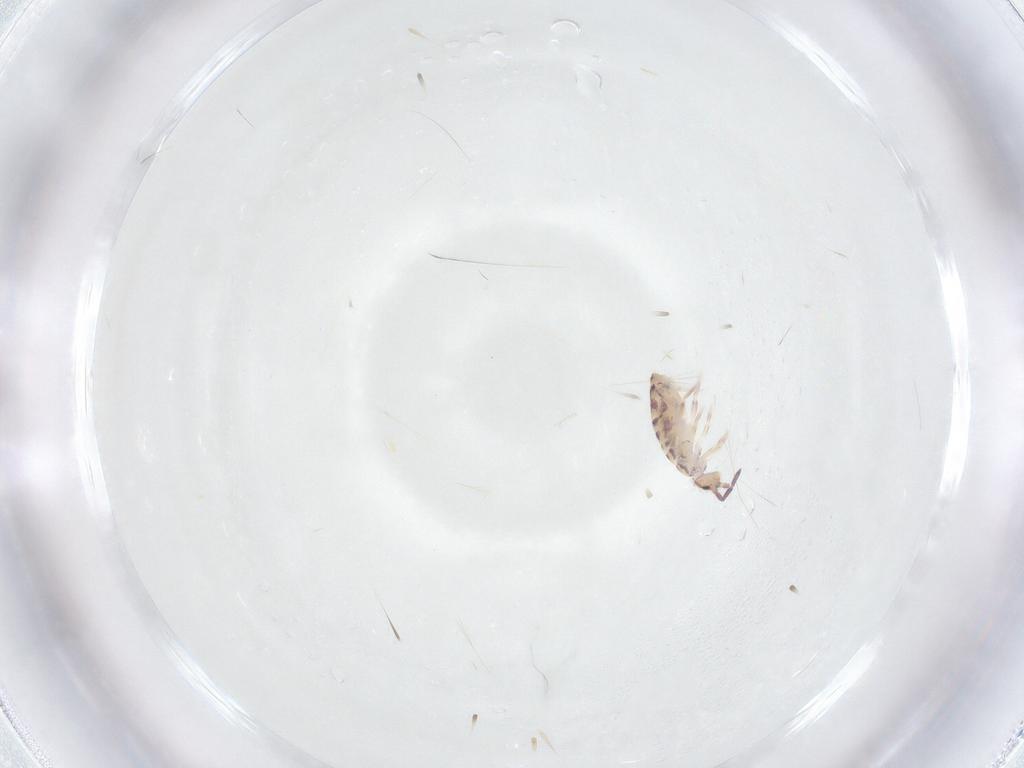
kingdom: Animalia
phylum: Arthropoda
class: Collembola
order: Entomobryomorpha
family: Entomobryidae
